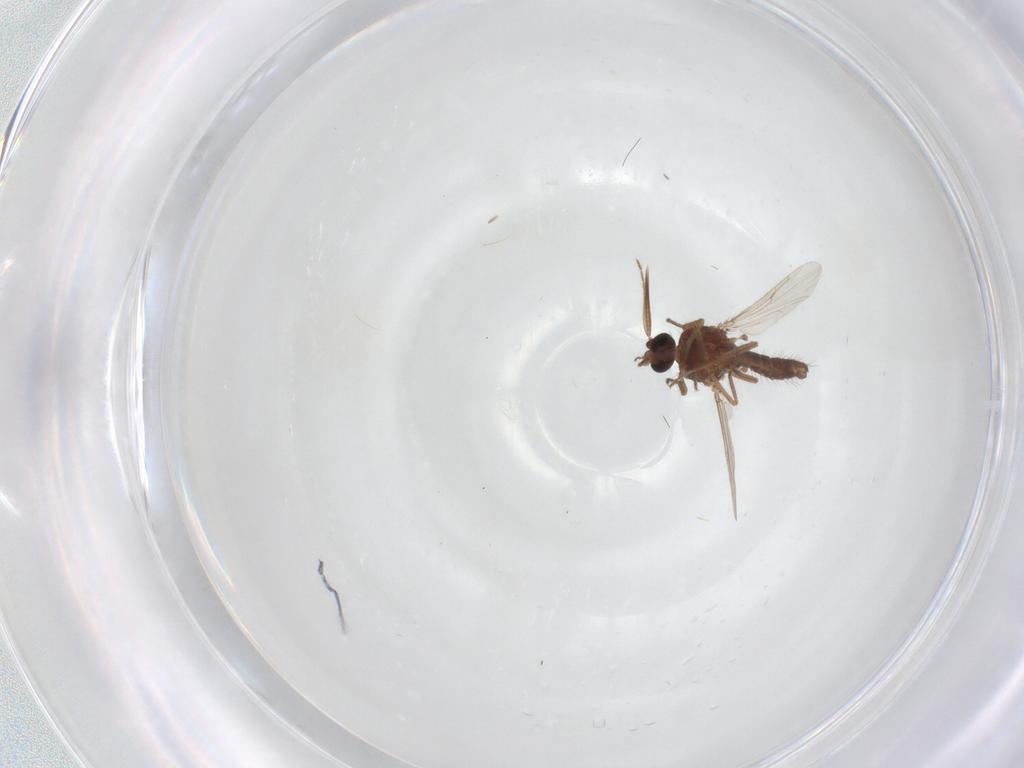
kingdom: Animalia
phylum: Arthropoda
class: Insecta
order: Diptera
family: Ceratopogonidae
